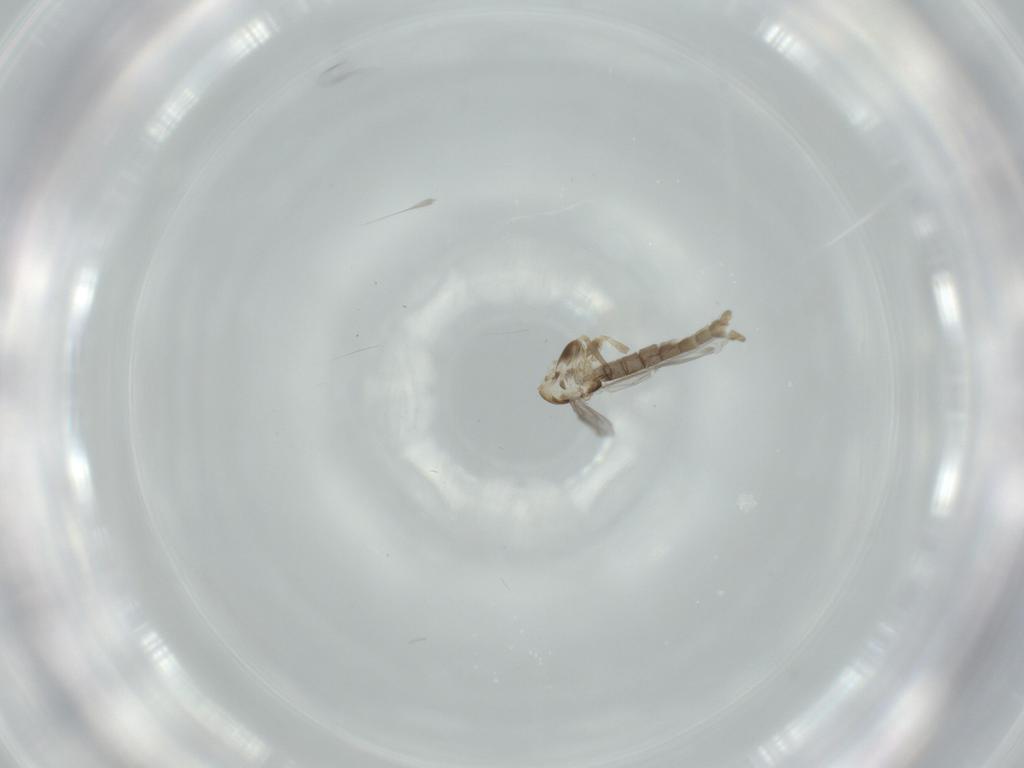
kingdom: Animalia
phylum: Arthropoda
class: Insecta
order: Diptera
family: Chironomidae
